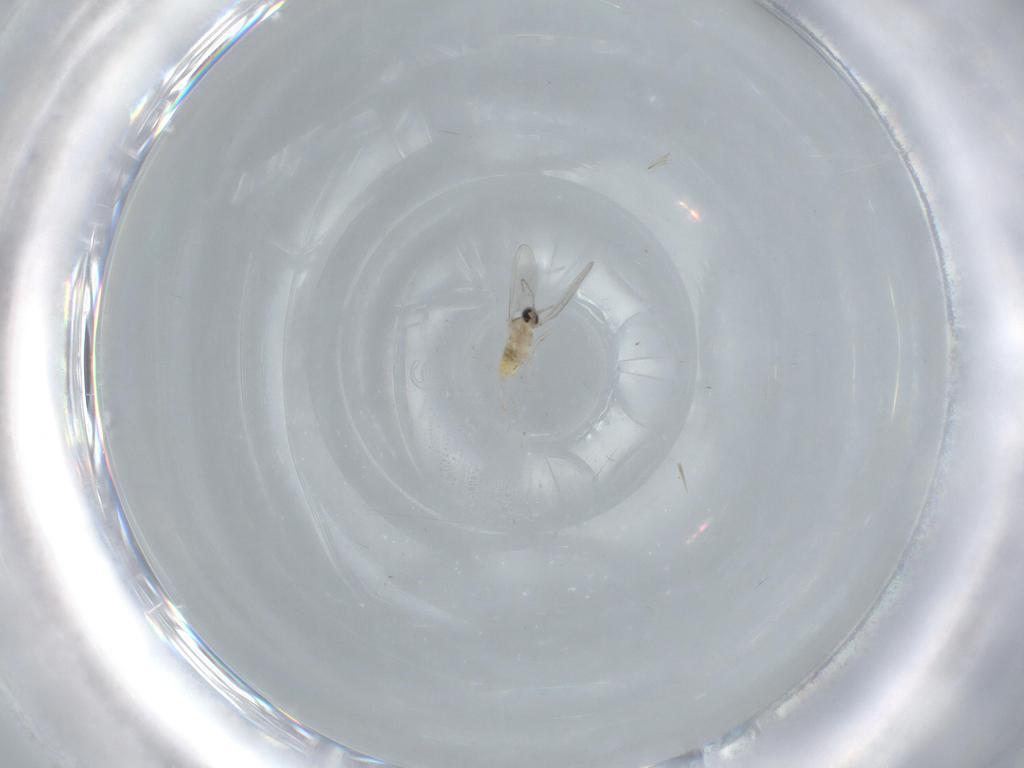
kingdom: Animalia
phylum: Arthropoda
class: Insecta
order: Diptera
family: Cecidomyiidae
